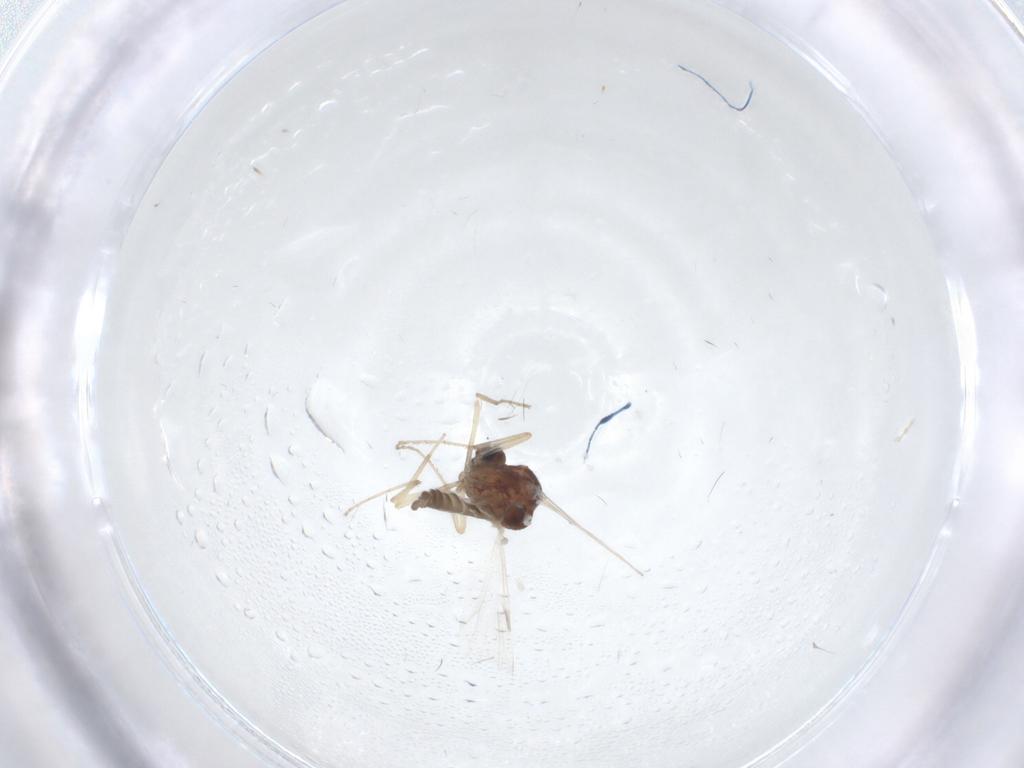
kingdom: Animalia
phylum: Arthropoda
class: Insecta
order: Diptera
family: Ceratopogonidae
